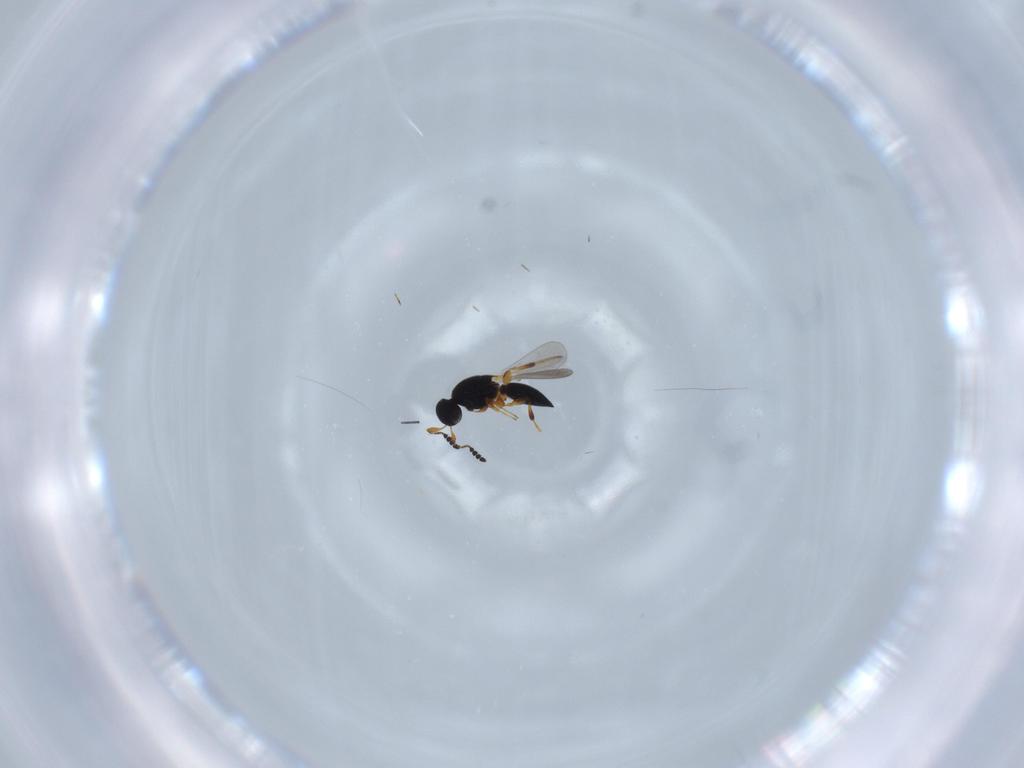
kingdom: Animalia
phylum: Arthropoda
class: Insecta
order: Hymenoptera
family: Platygastridae
